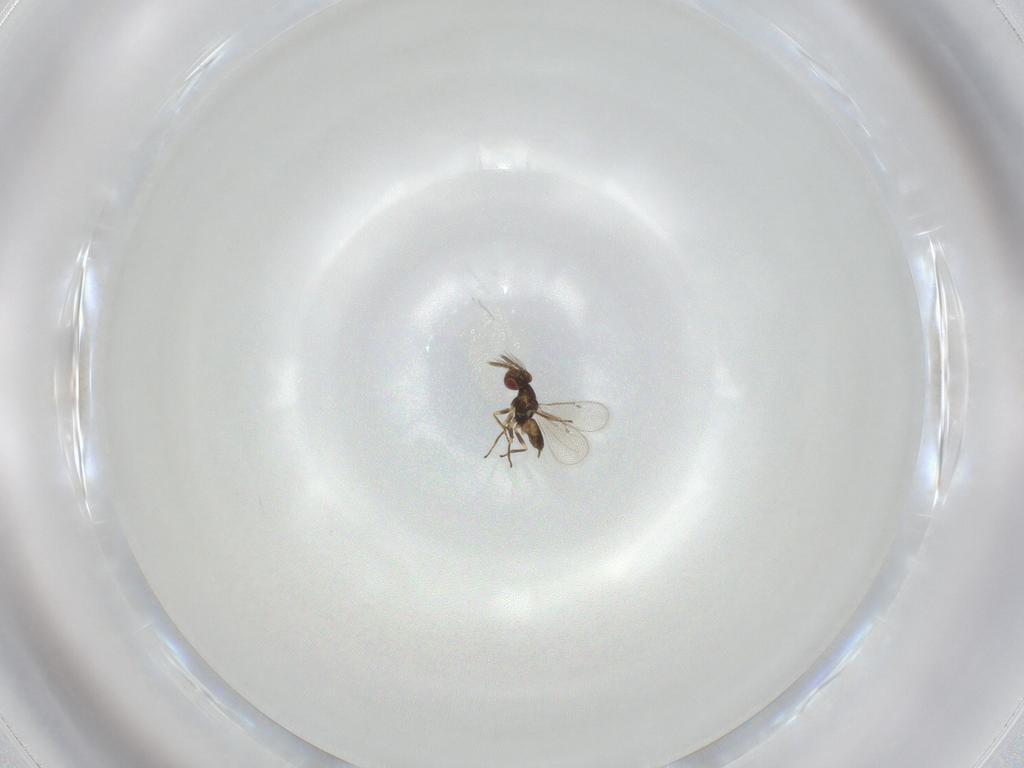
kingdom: Animalia
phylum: Arthropoda
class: Insecta
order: Hymenoptera
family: Eulophidae
